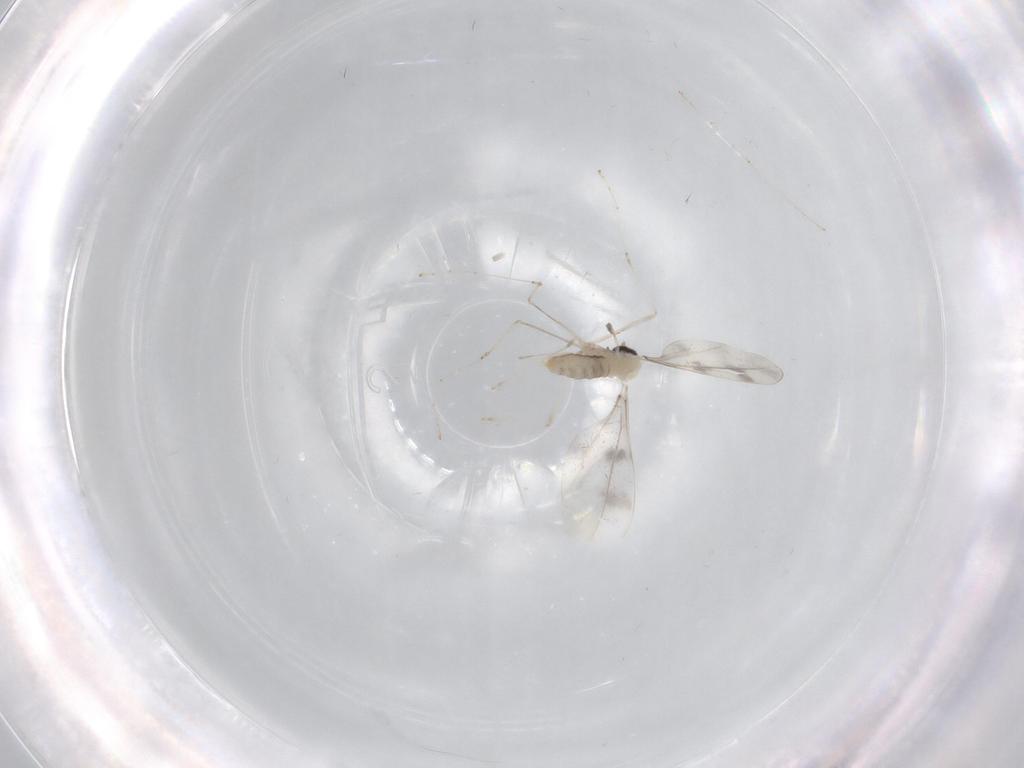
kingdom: Animalia
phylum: Arthropoda
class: Insecta
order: Diptera
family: Cecidomyiidae
